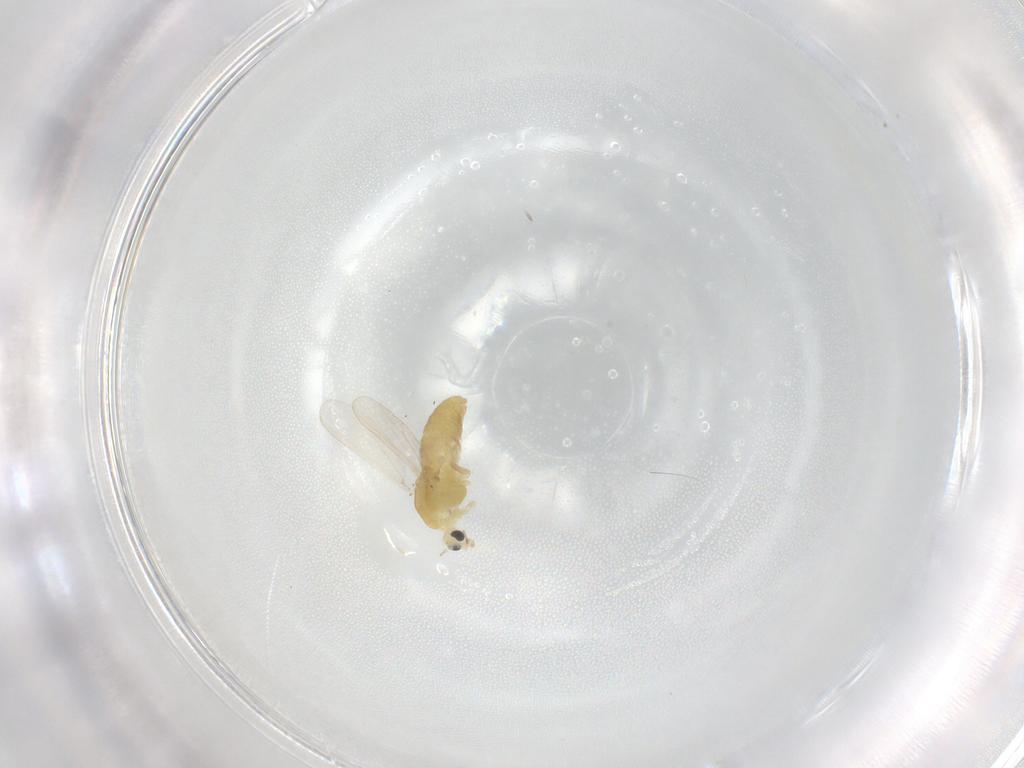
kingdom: Animalia
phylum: Arthropoda
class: Insecta
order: Diptera
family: Chironomidae
